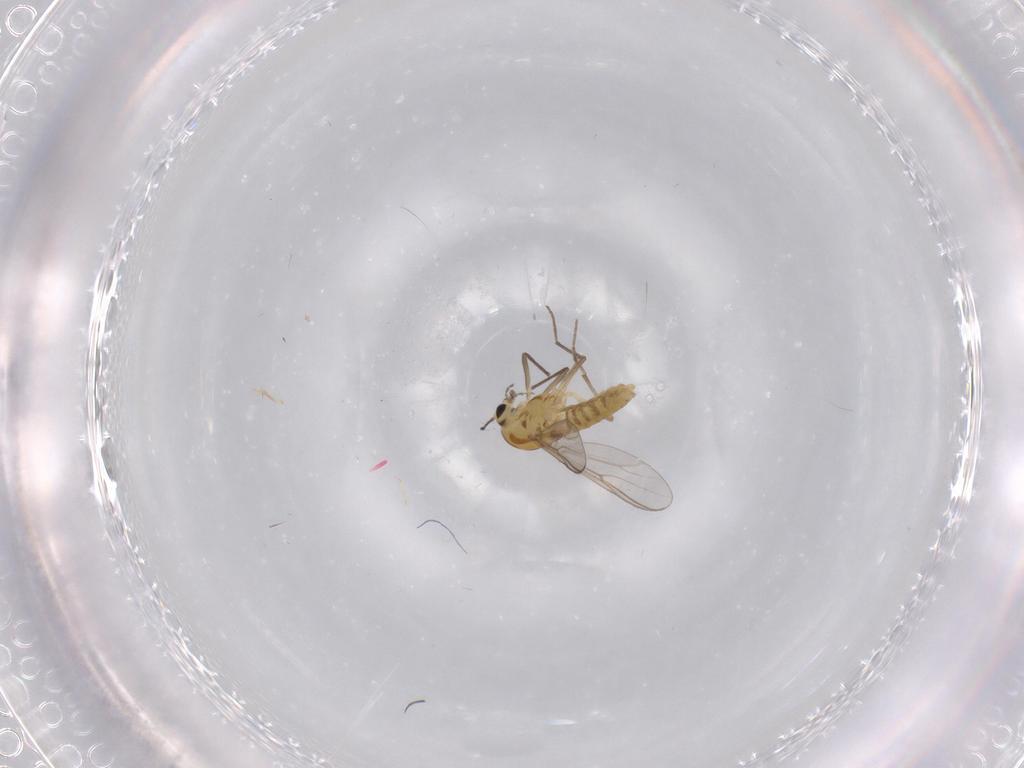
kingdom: Animalia
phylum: Arthropoda
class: Insecta
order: Diptera
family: Chironomidae
